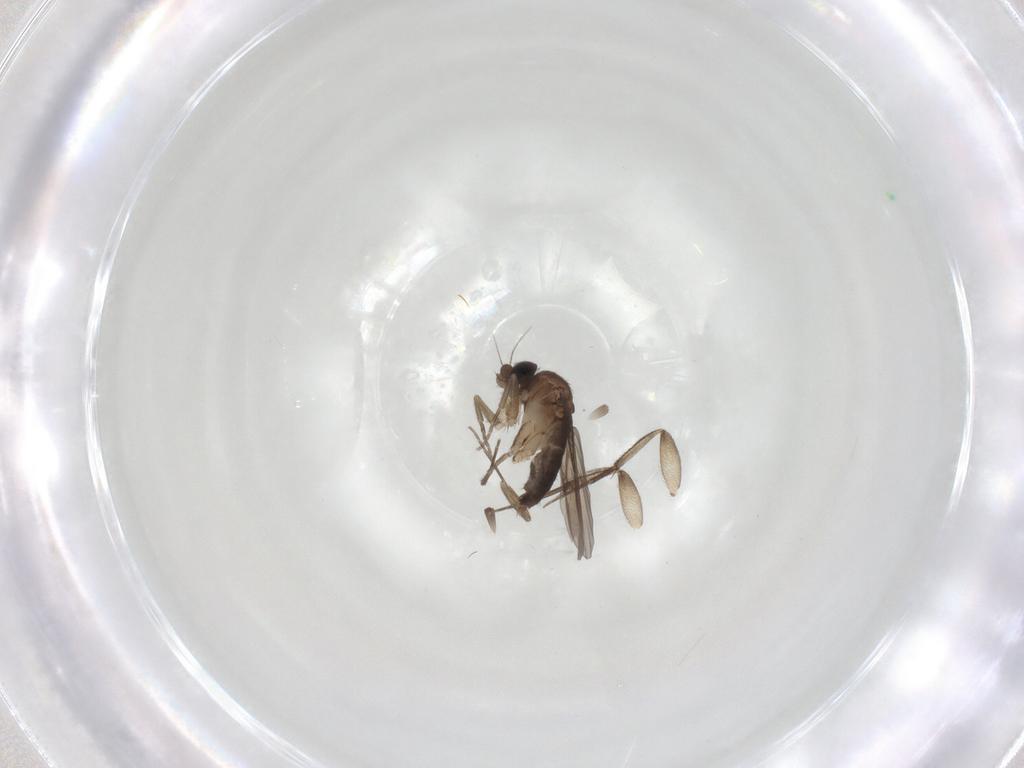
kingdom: Animalia
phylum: Arthropoda
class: Insecta
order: Diptera
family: Phoridae
